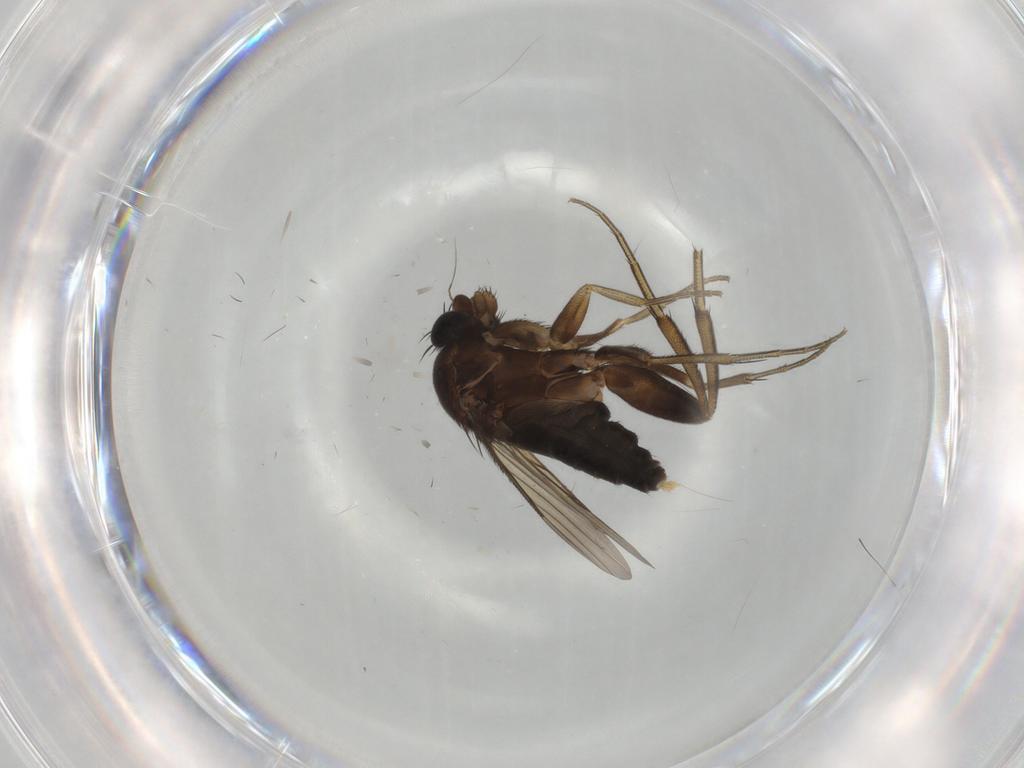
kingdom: Animalia
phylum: Arthropoda
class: Insecta
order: Diptera
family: Phoridae
